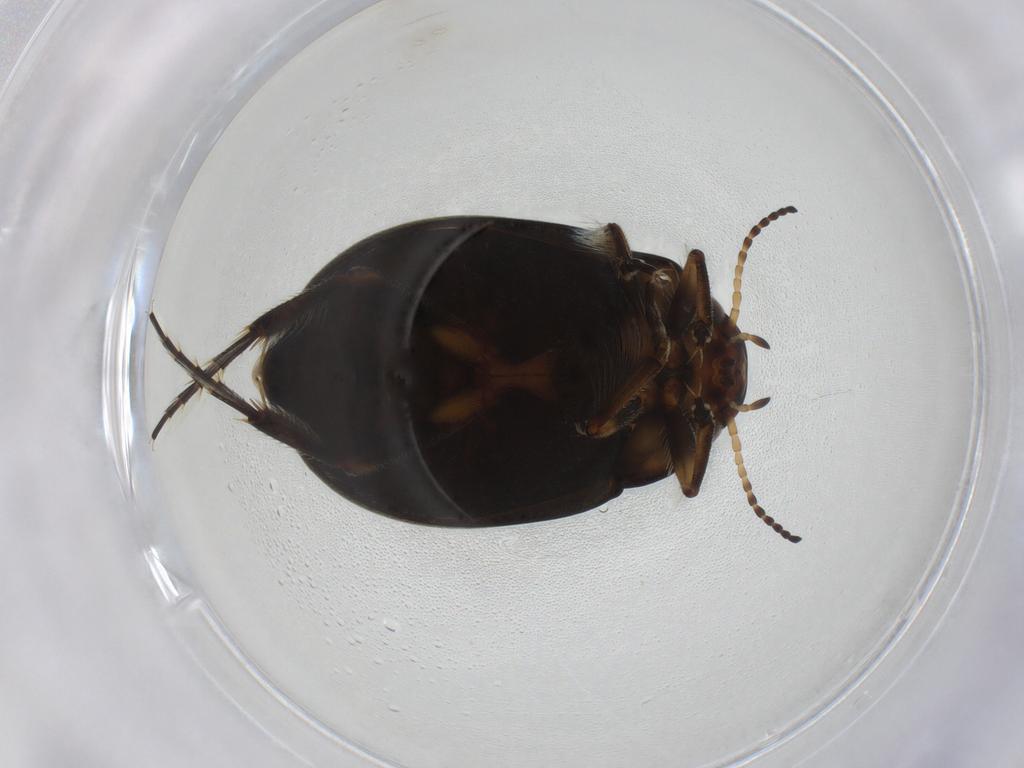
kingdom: Animalia
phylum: Arthropoda
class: Insecta
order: Coleoptera
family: Dytiscidae
